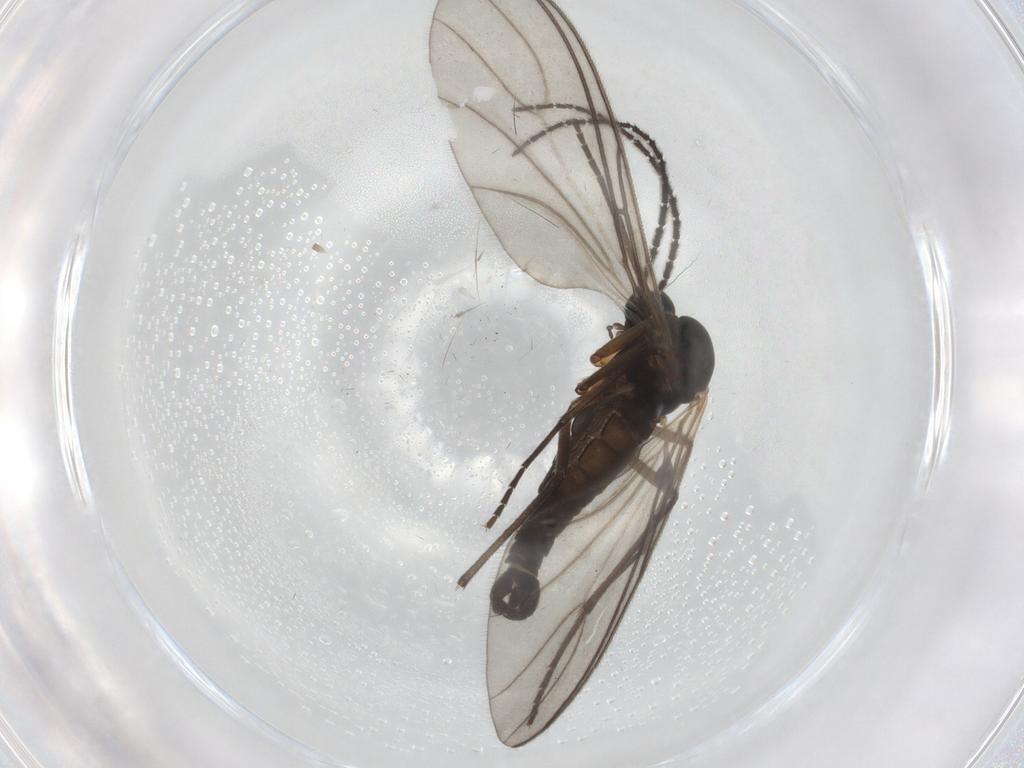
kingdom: Animalia
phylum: Arthropoda
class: Insecta
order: Diptera
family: Sciaridae
